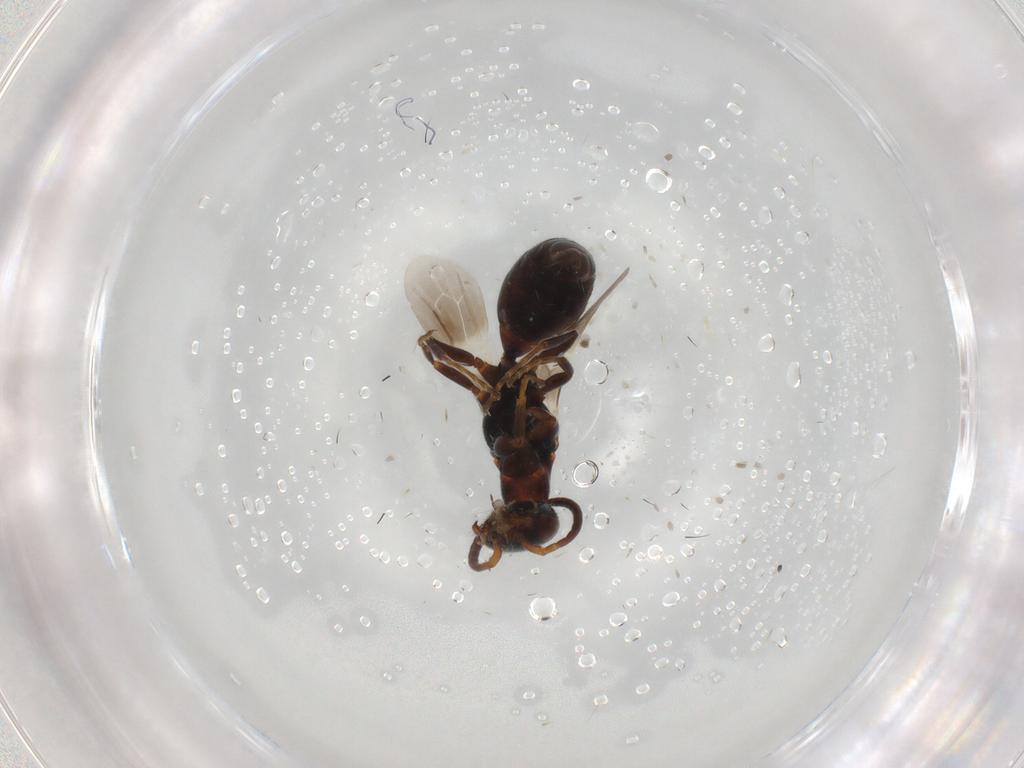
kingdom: Animalia
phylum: Arthropoda
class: Insecta
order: Hymenoptera
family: Bethylidae
